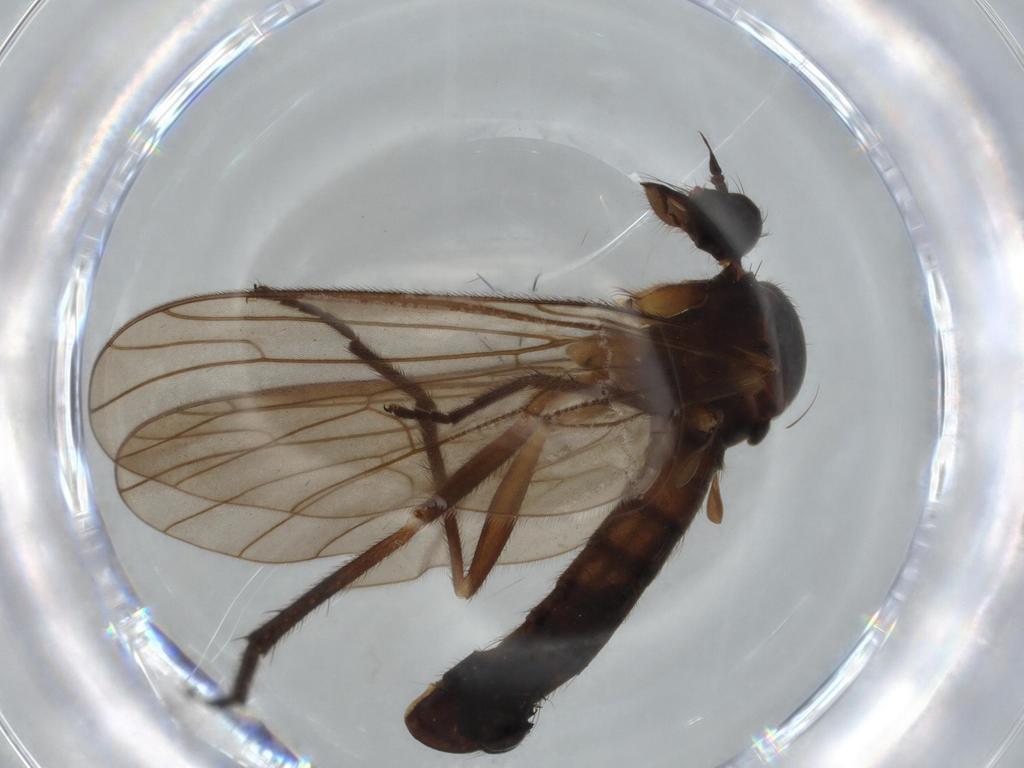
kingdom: Animalia
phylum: Arthropoda
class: Insecta
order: Diptera
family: Empididae
